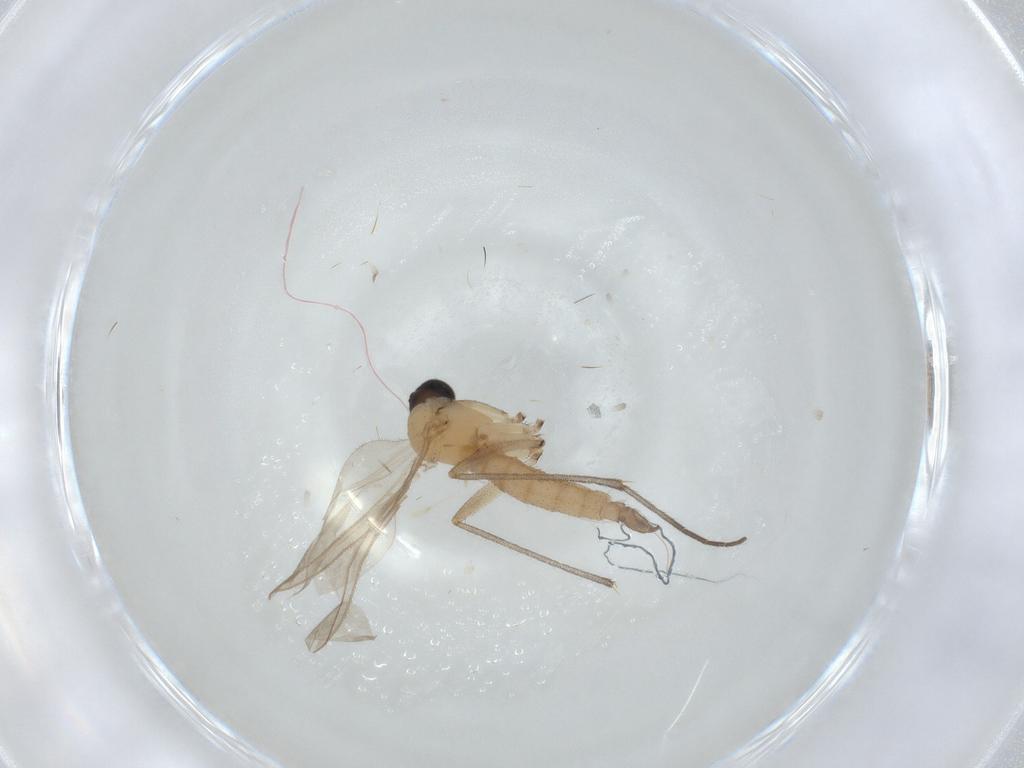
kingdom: Animalia
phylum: Arthropoda
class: Insecta
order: Diptera
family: Sciaridae
